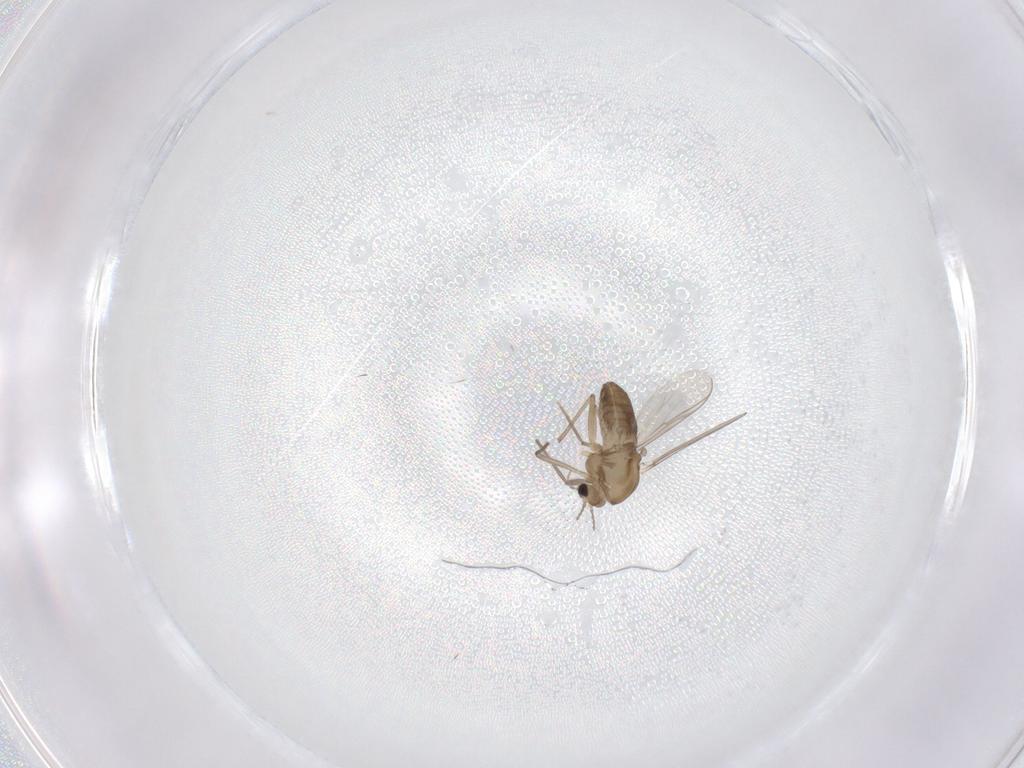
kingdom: Animalia
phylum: Arthropoda
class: Insecta
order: Diptera
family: Chironomidae
